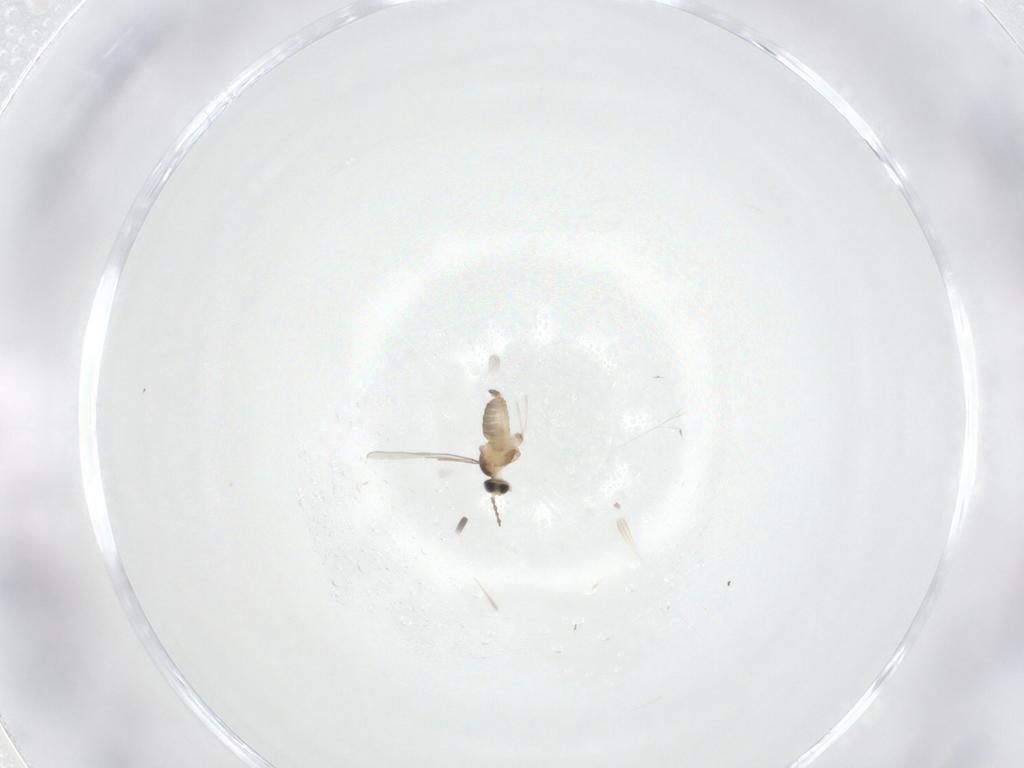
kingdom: Animalia
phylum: Arthropoda
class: Insecta
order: Diptera
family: Cecidomyiidae
